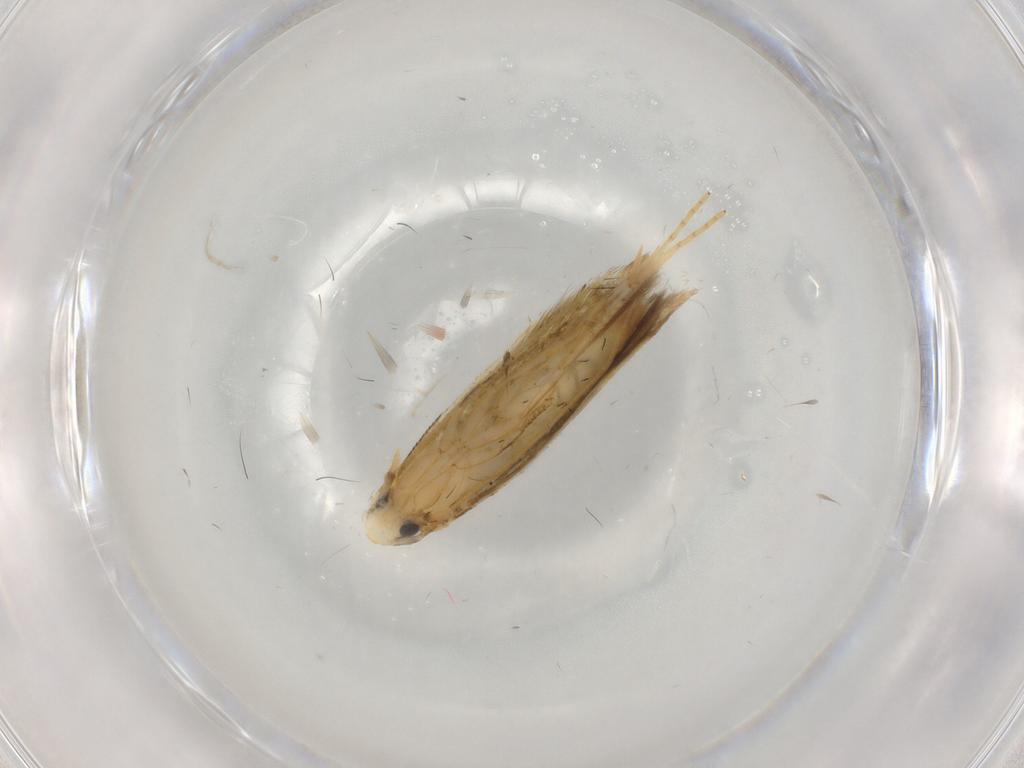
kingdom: Animalia
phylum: Arthropoda
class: Insecta
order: Lepidoptera
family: Tineidae
